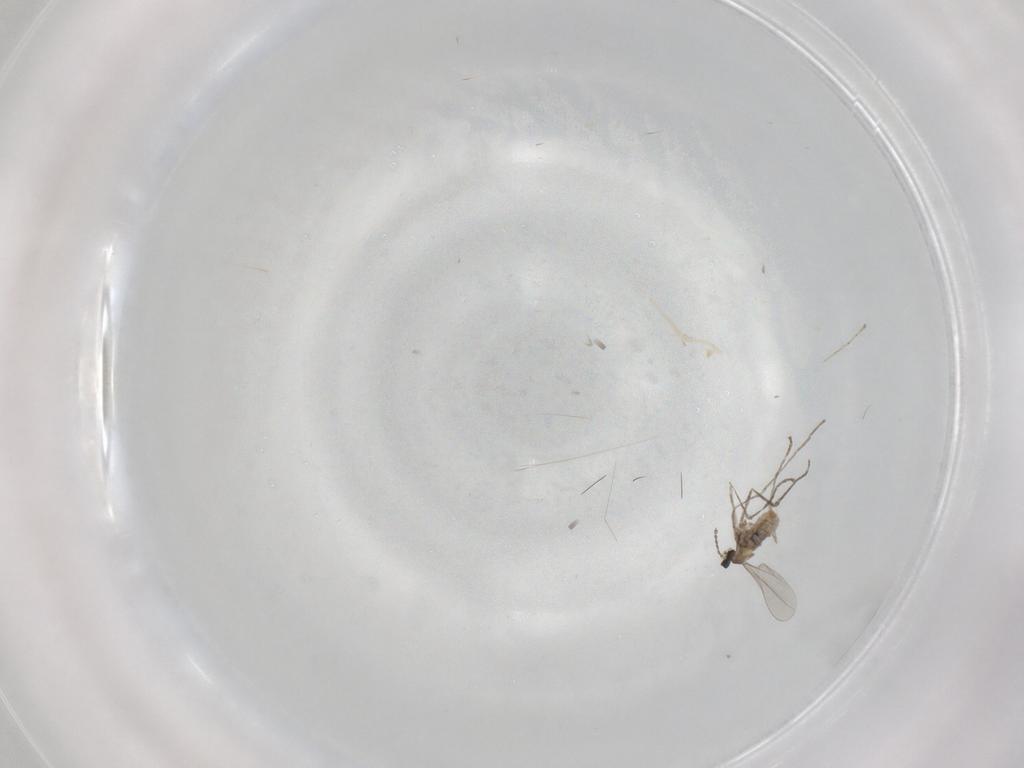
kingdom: Animalia
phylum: Arthropoda
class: Insecta
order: Diptera
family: Cecidomyiidae
